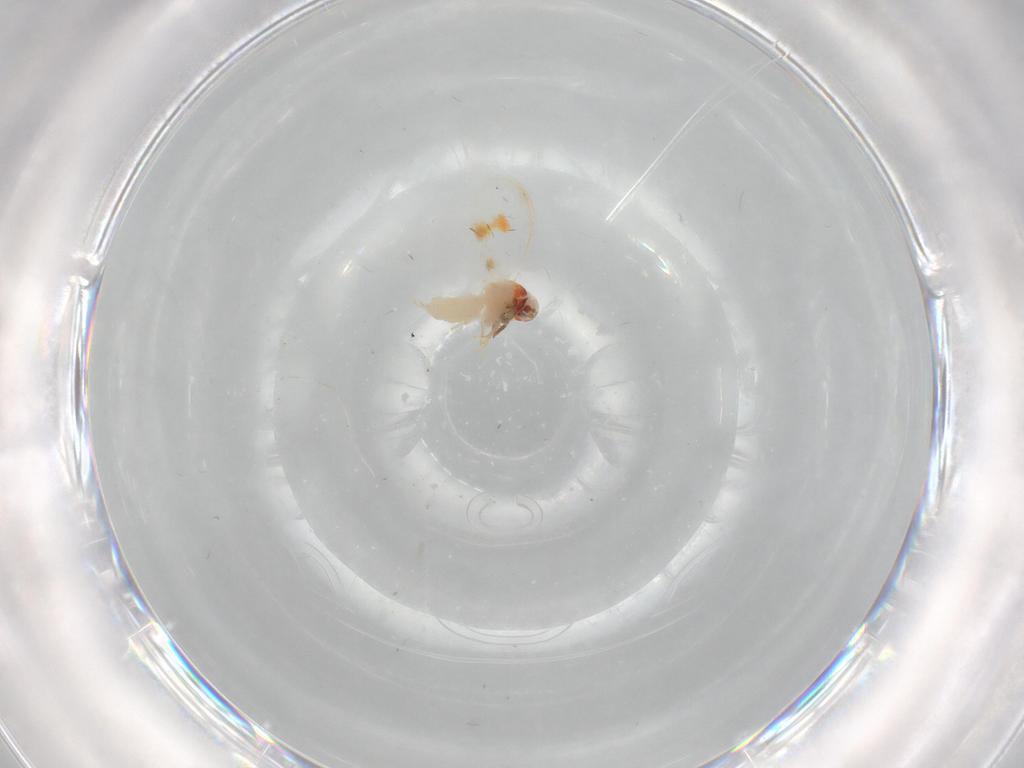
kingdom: Animalia
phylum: Arthropoda
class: Insecta
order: Hemiptera
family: Aleyrodidae
